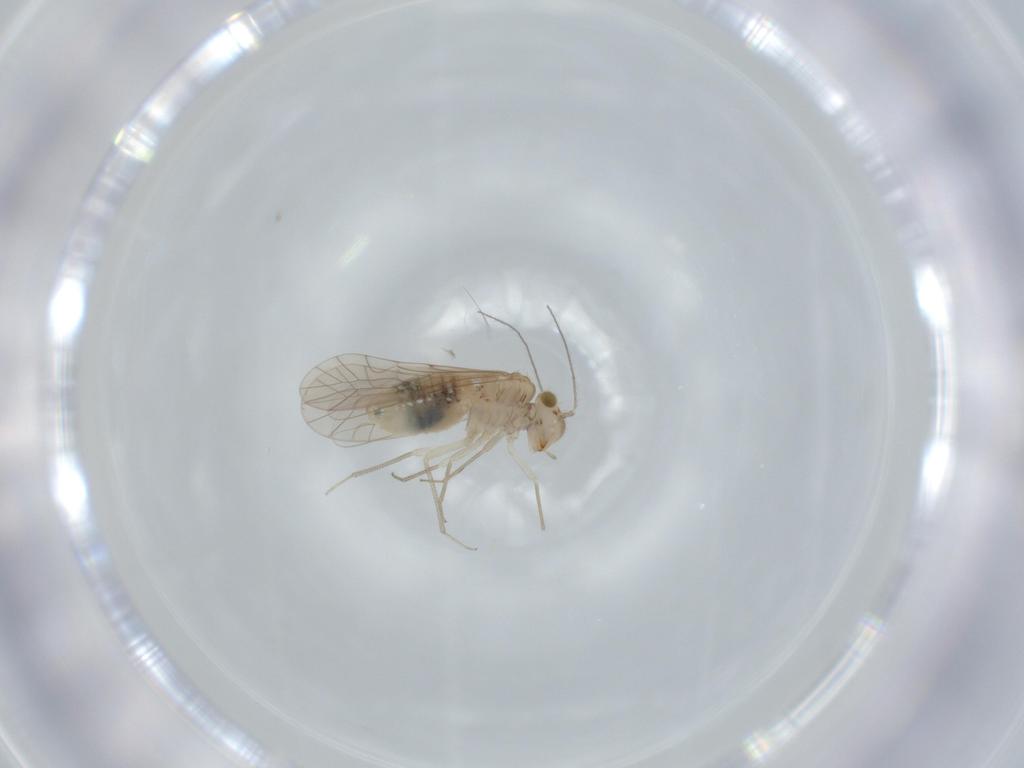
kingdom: Animalia
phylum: Arthropoda
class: Insecta
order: Psocodea
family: Lachesillidae
